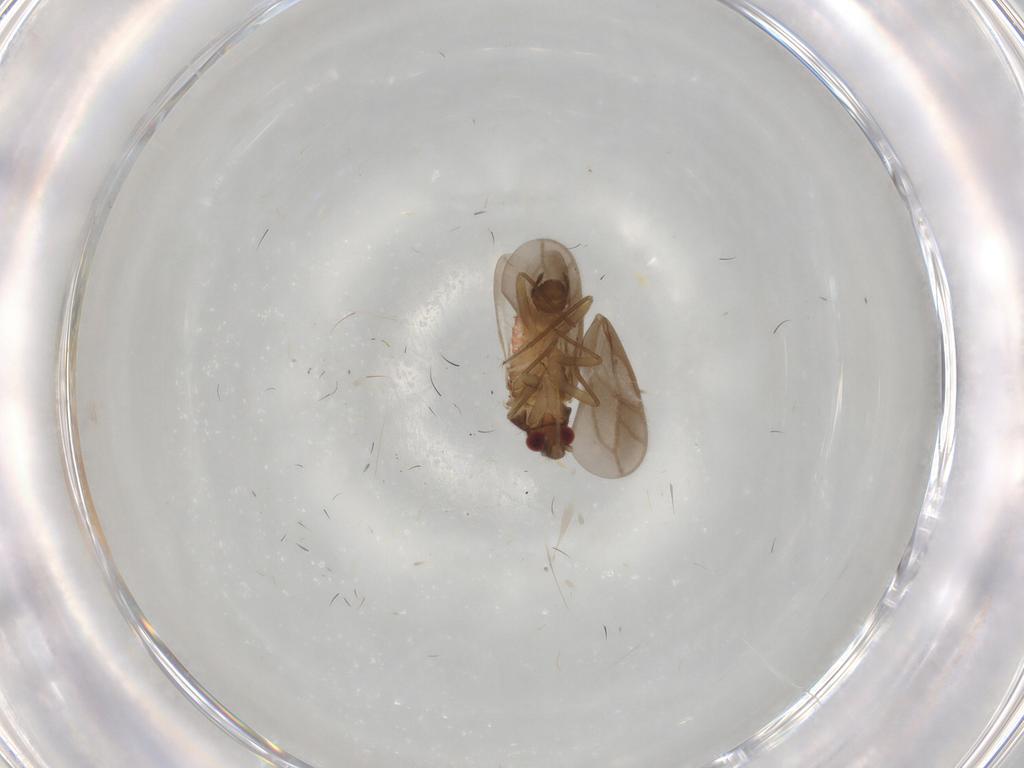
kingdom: Animalia
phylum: Arthropoda
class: Insecta
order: Hemiptera
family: Ceratocombidae
